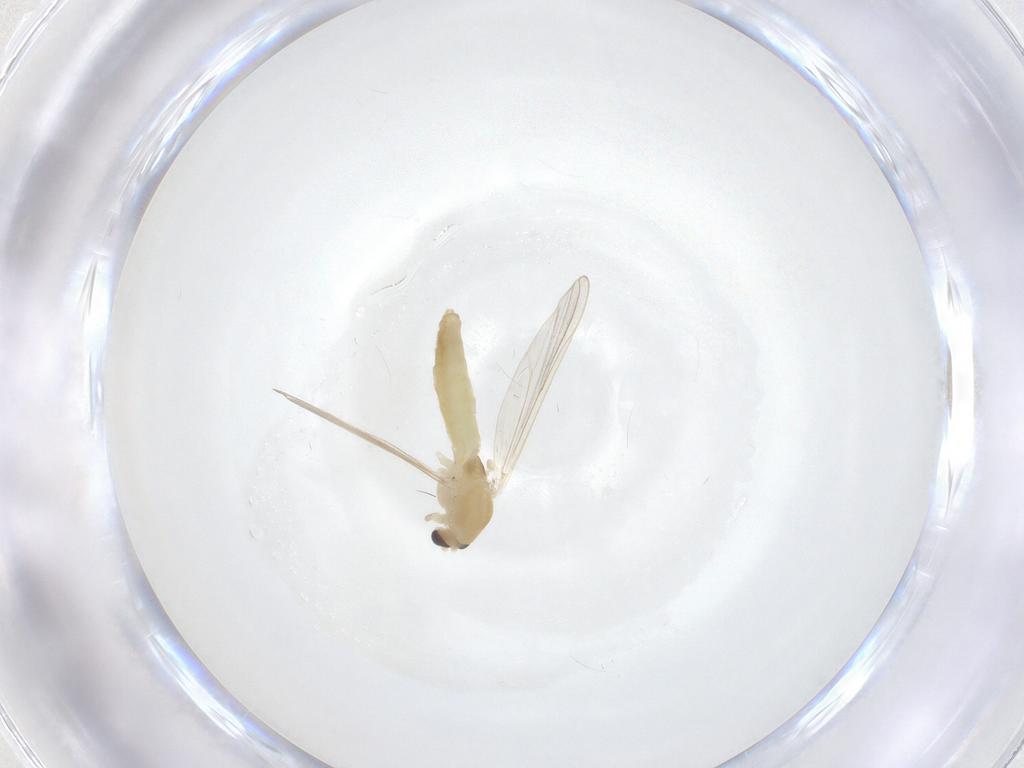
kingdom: Animalia
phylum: Arthropoda
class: Insecta
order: Diptera
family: Chironomidae
